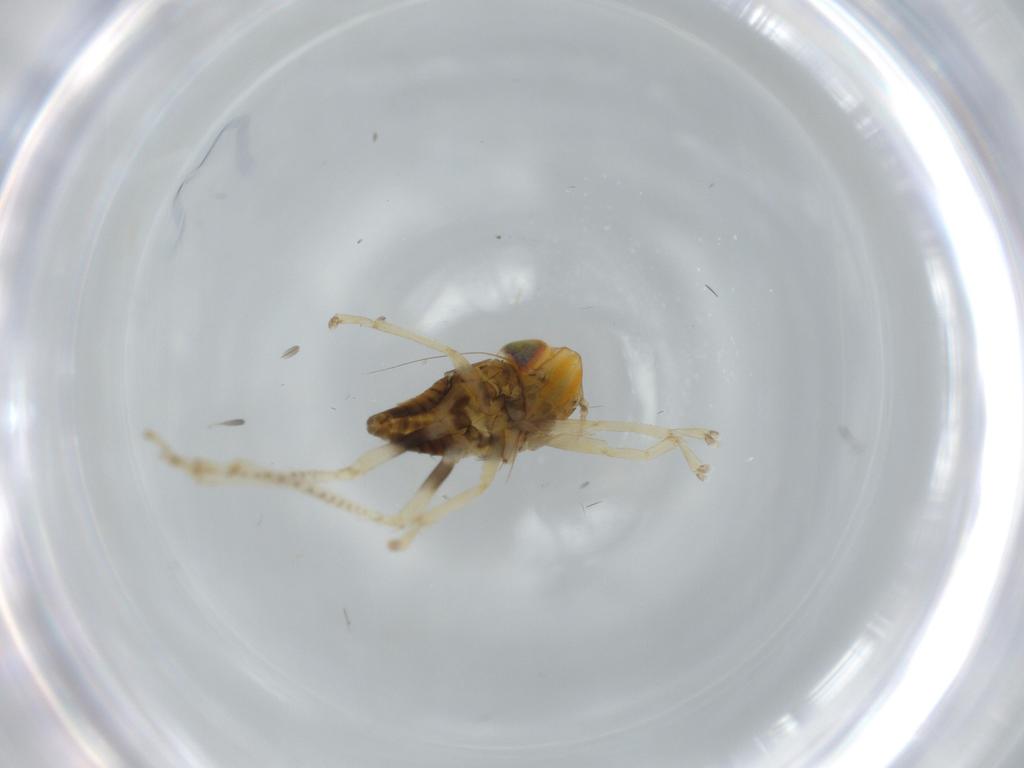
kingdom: Animalia
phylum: Arthropoda
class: Insecta
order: Hemiptera
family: Cicadellidae
